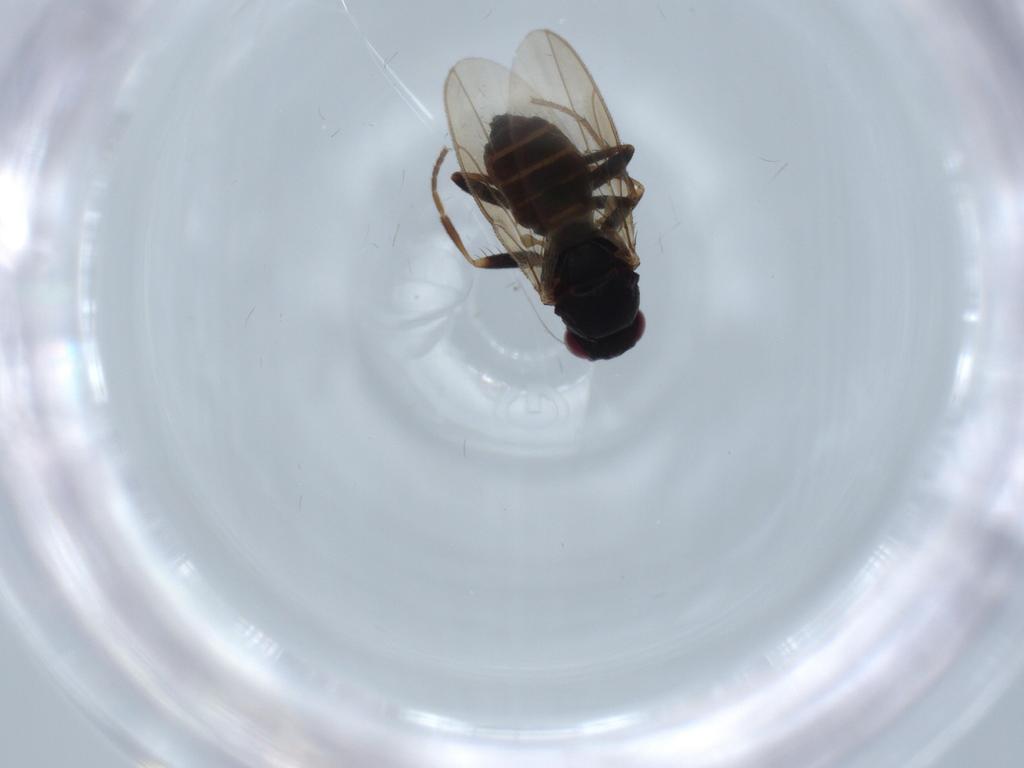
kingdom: Animalia
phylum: Arthropoda
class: Insecta
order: Diptera
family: Sphaeroceridae
